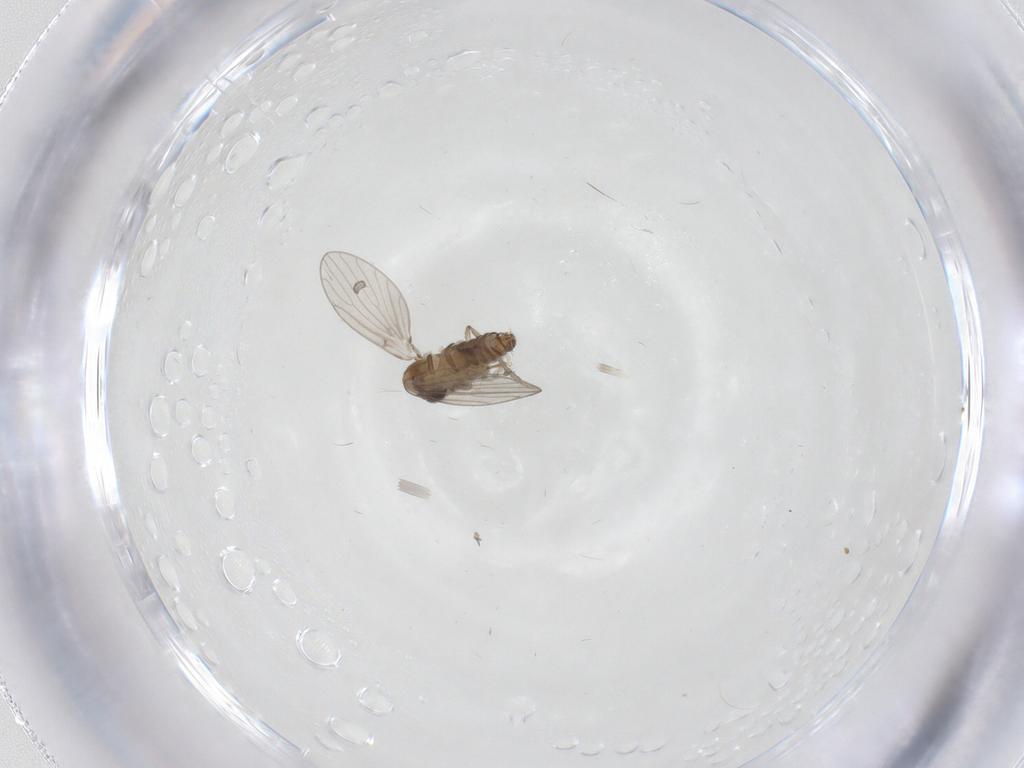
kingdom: Animalia
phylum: Arthropoda
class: Insecta
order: Diptera
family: Psychodidae
